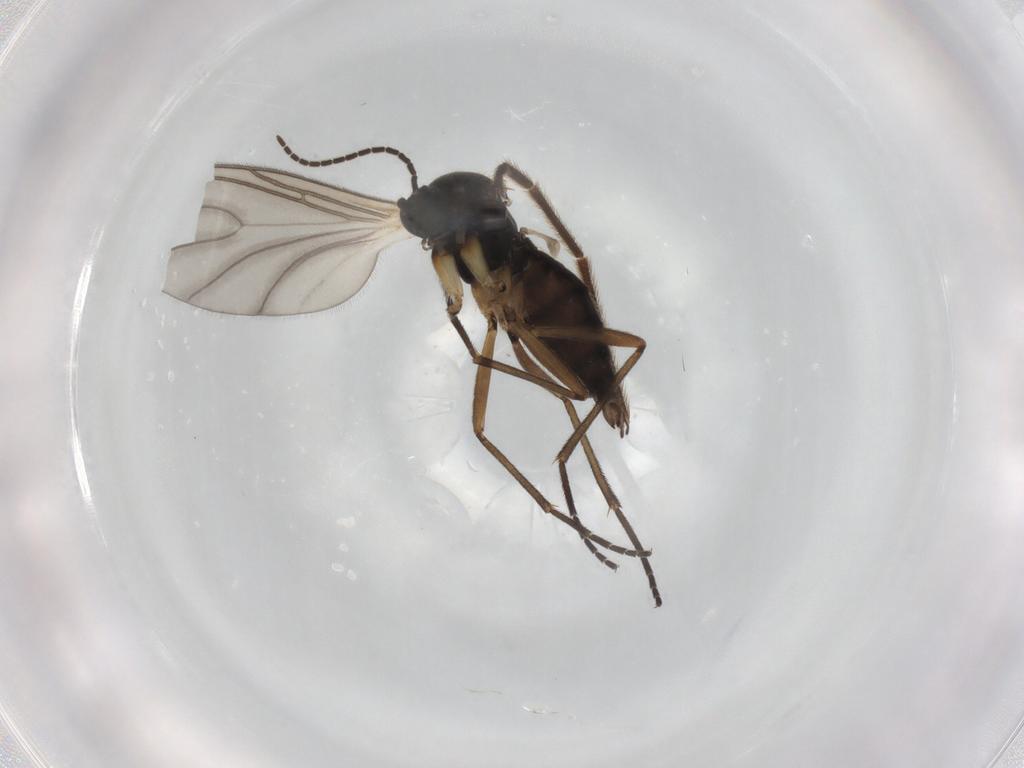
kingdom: Animalia
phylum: Arthropoda
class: Insecta
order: Diptera
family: Sciaridae
